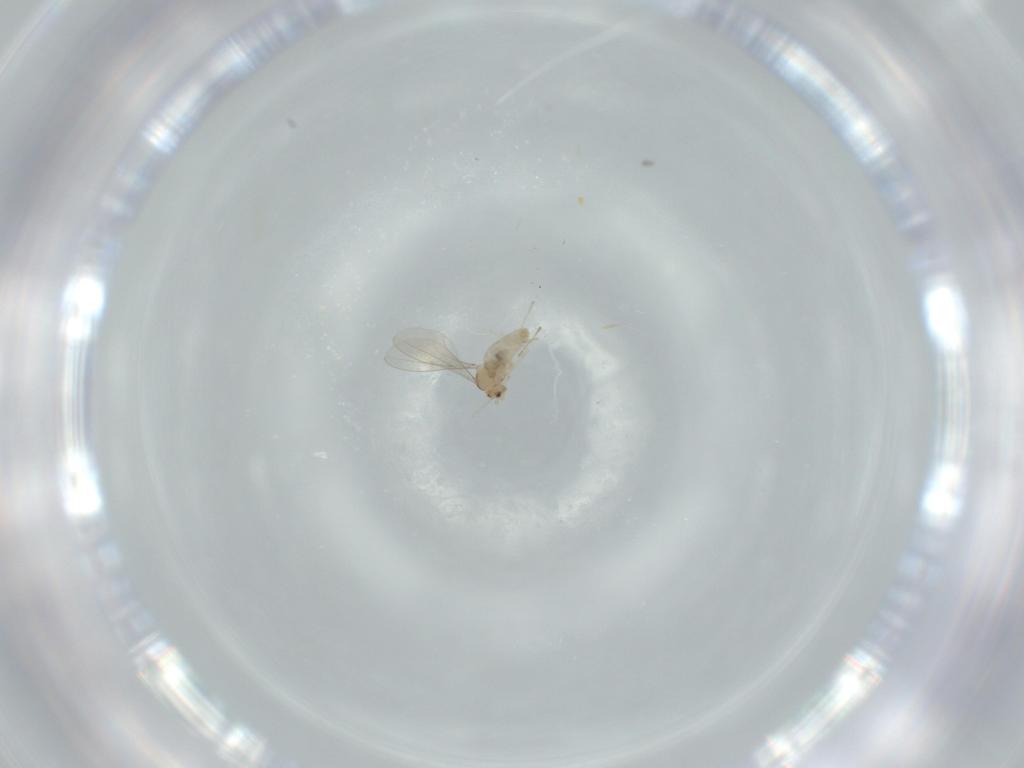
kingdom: Animalia
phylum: Arthropoda
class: Insecta
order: Diptera
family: Cecidomyiidae
